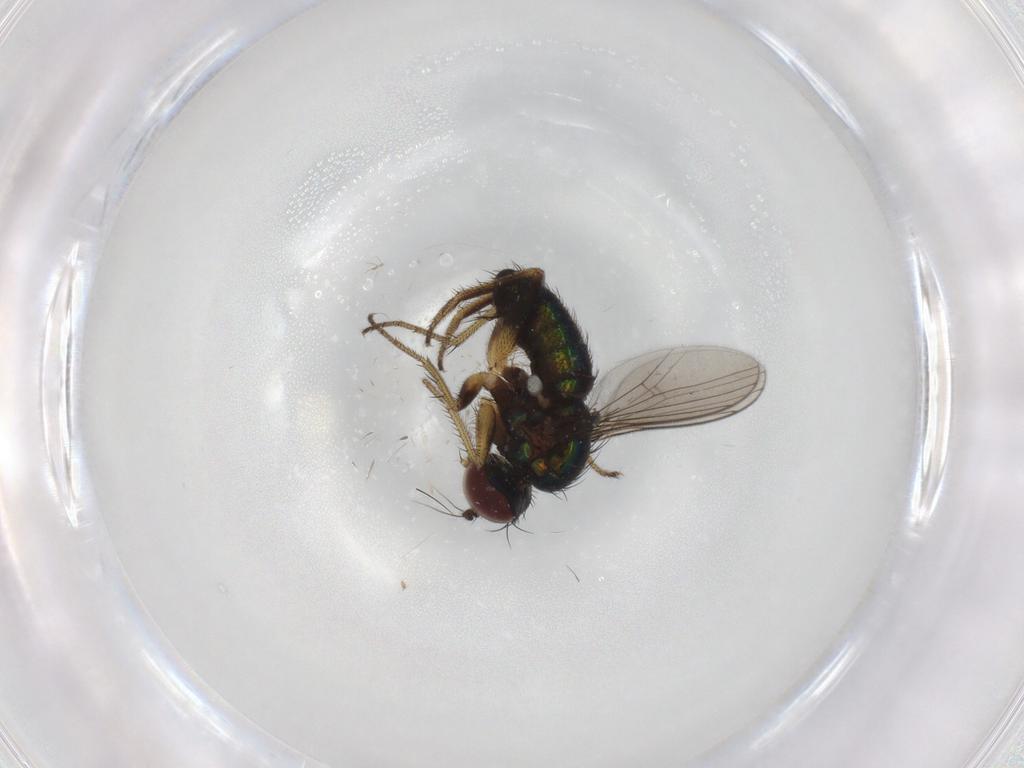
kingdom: Animalia
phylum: Arthropoda
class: Insecta
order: Diptera
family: Dolichopodidae
